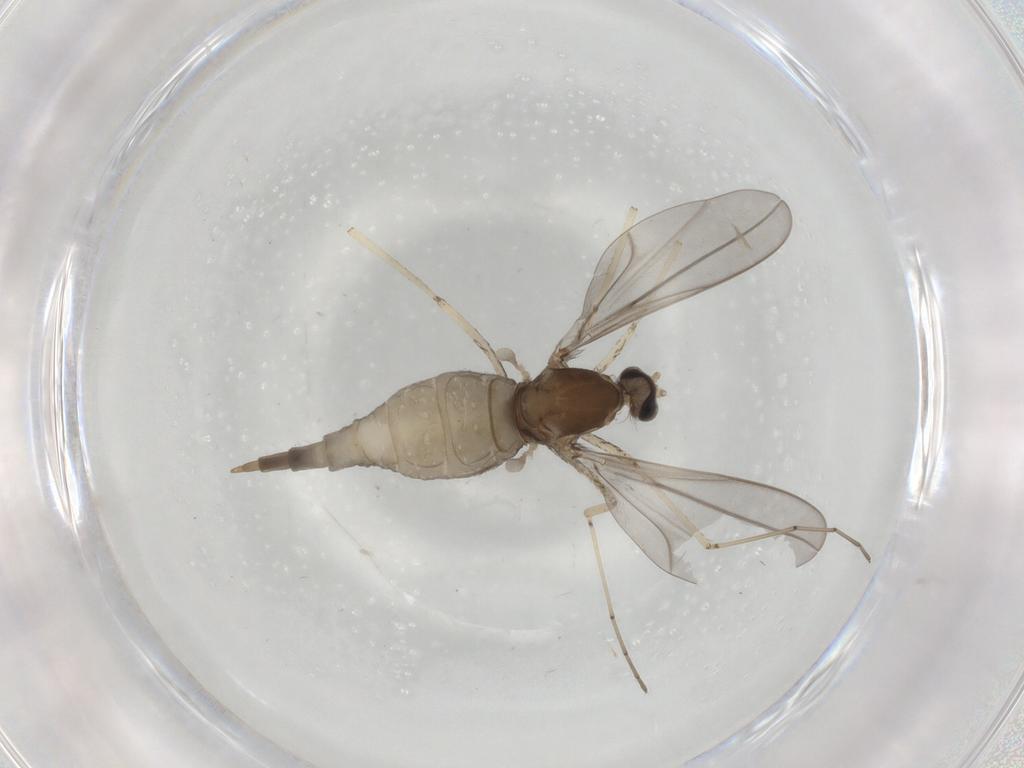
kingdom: Animalia
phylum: Arthropoda
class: Insecta
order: Diptera
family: Cecidomyiidae
